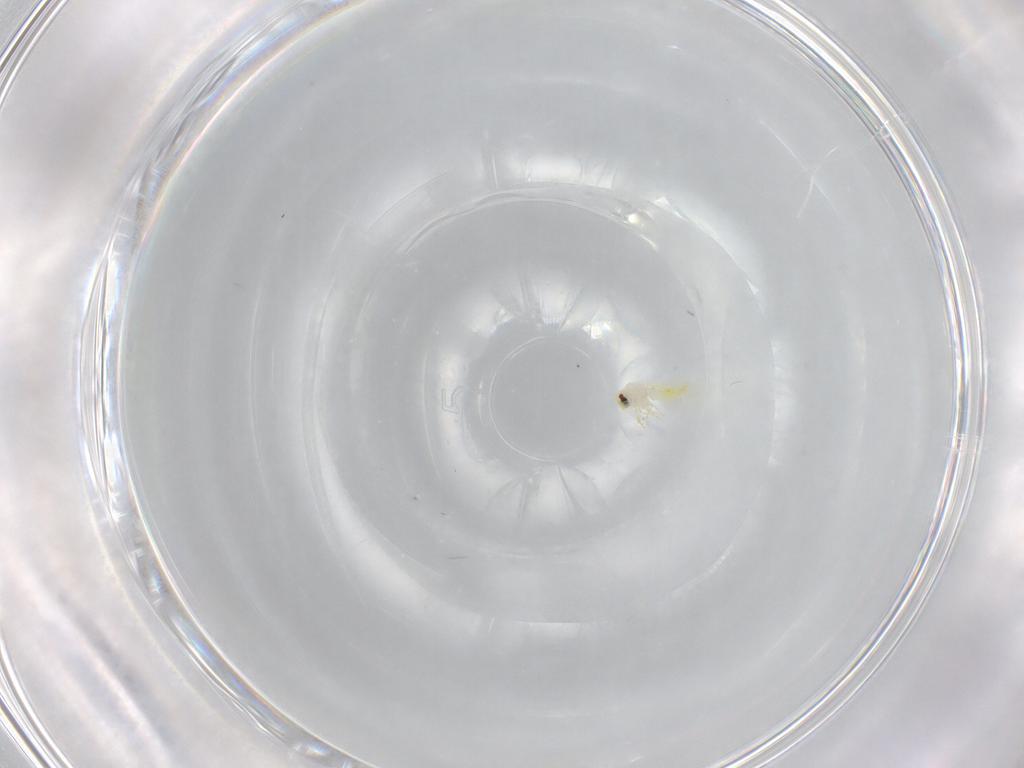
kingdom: Animalia
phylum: Arthropoda
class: Insecta
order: Hemiptera
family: Aleyrodidae
